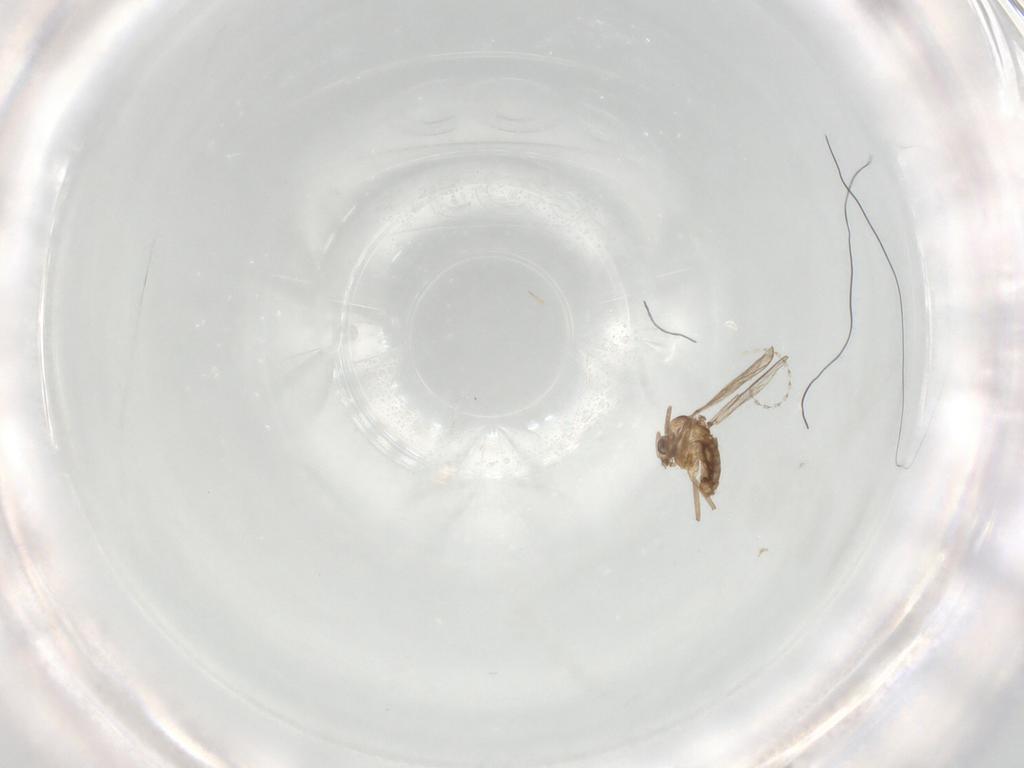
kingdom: Animalia
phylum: Arthropoda
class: Insecta
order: Diptera
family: Cecidomyiidae
